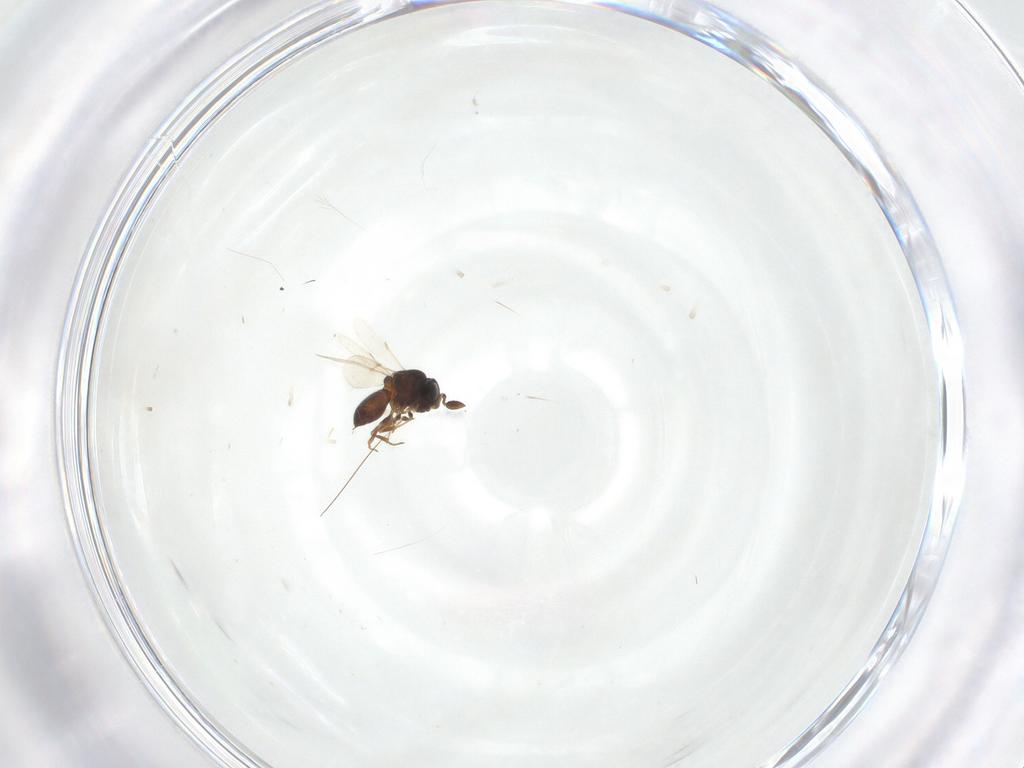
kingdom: Animalia
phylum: Arthropoda
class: Insecta
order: Hymenoptera
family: Scelionidae
